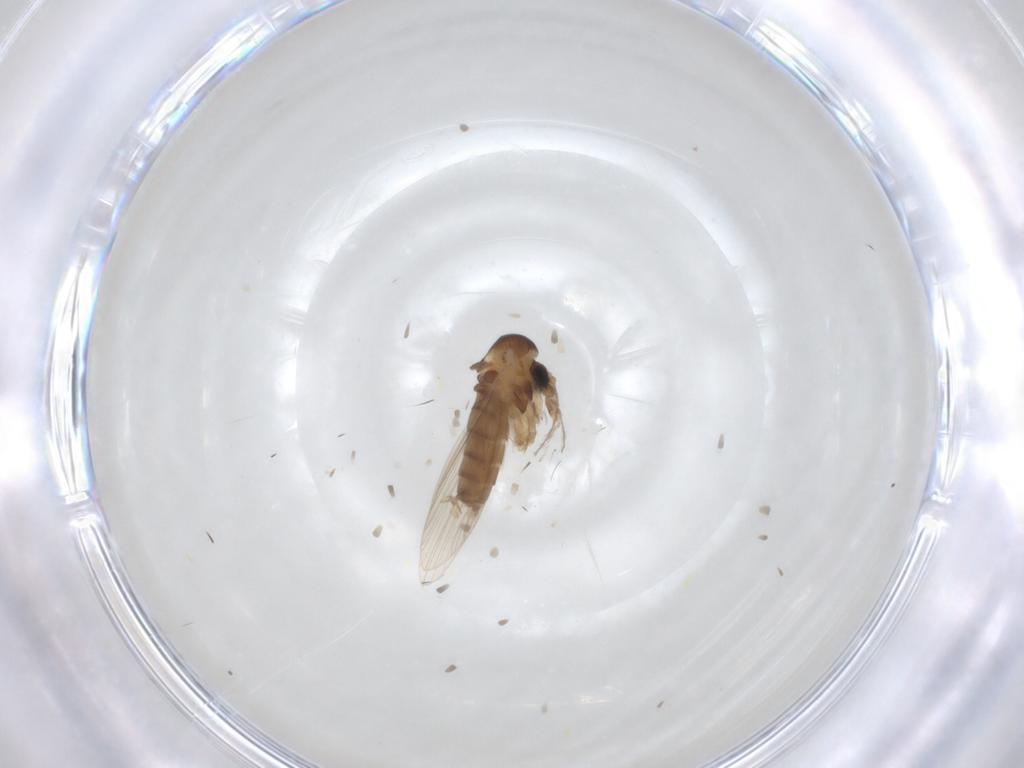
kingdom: Animalia
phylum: Arthropoda
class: Insecta
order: Diptera
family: Psychodidae
